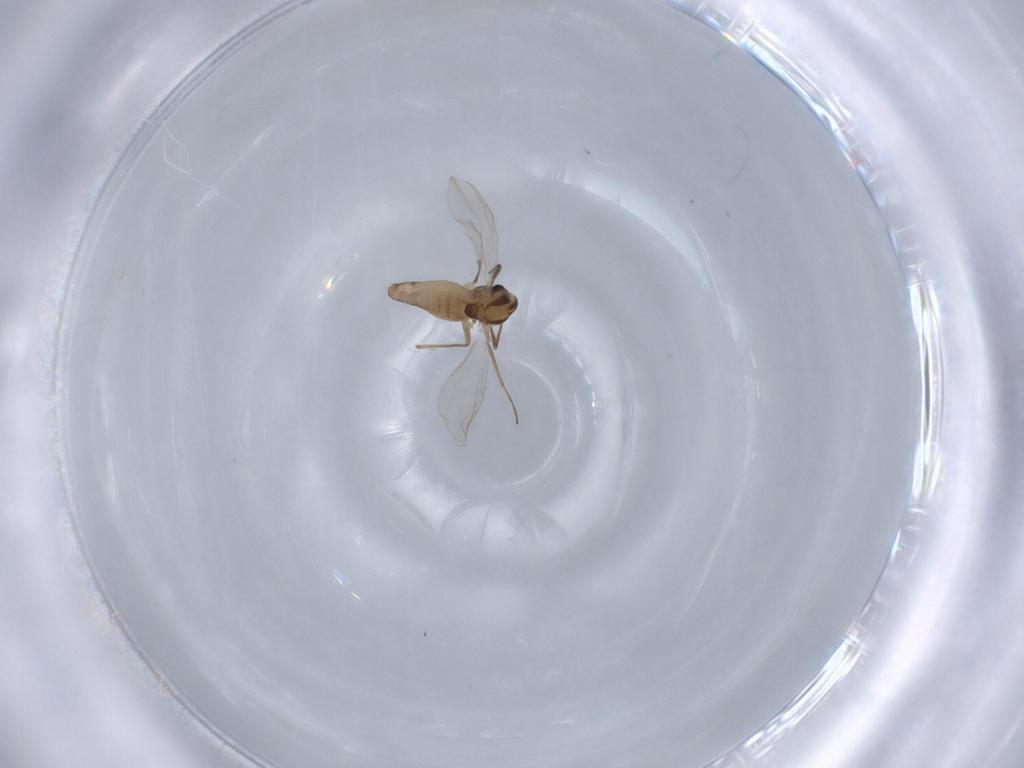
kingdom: Animalia
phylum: Arthropoda
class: Insecta
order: Diptera
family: Chironomidae
